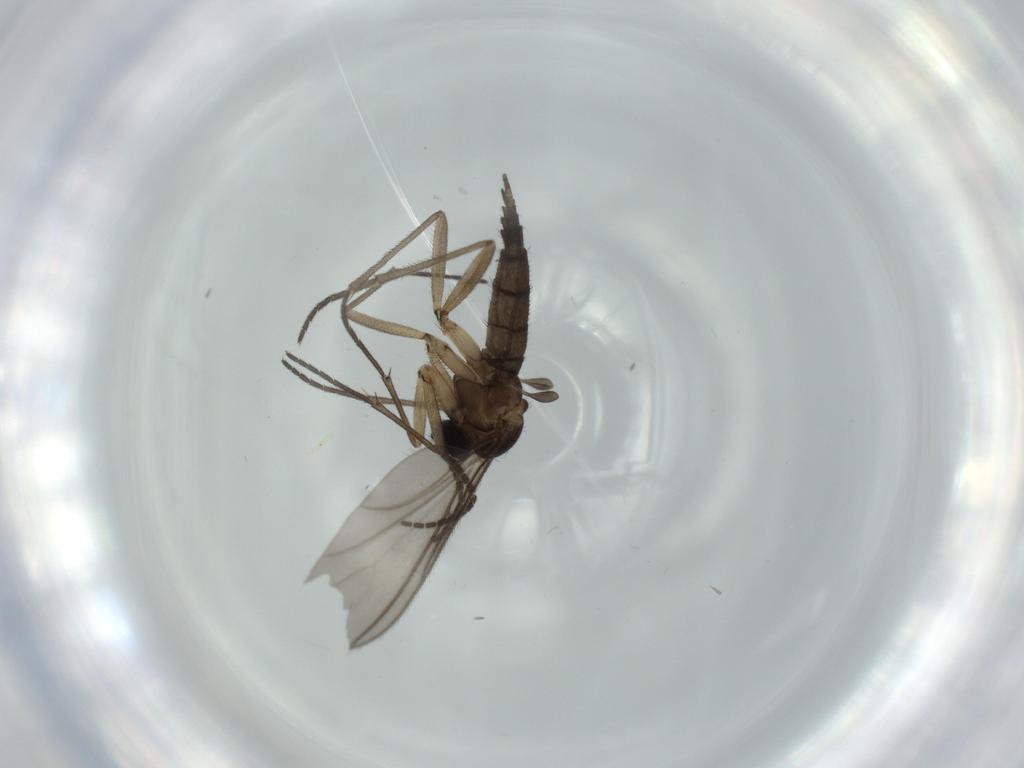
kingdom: Animalia
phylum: Arthropoda
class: Insecta
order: Diptera
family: Sciaridae
